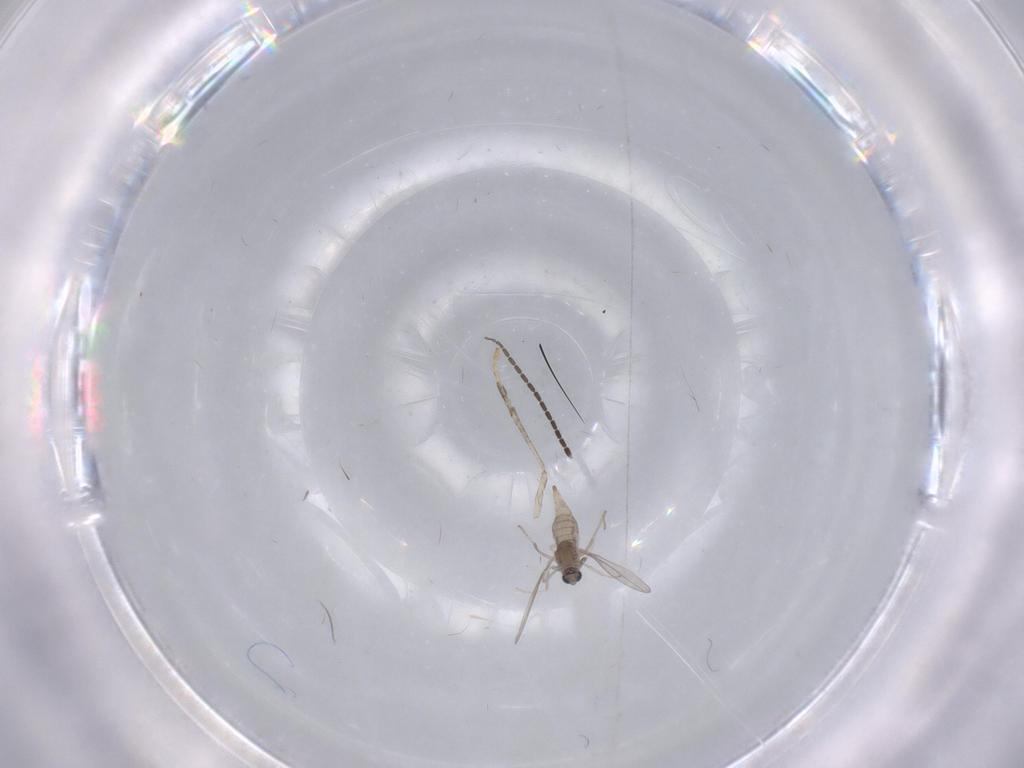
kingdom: Animalia
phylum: Arthropoda
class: Insecta
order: Diptera
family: Sciaridae
